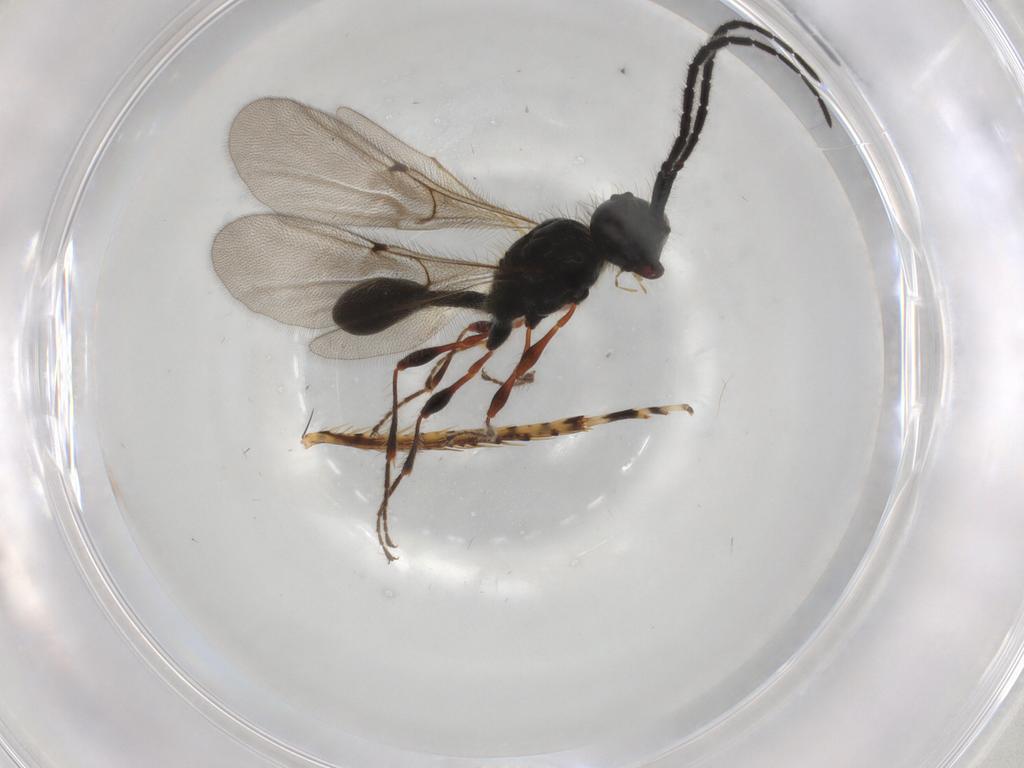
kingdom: Animalia
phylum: Arthropoda
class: Insecta
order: Hymenoptera
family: Diapriidae
